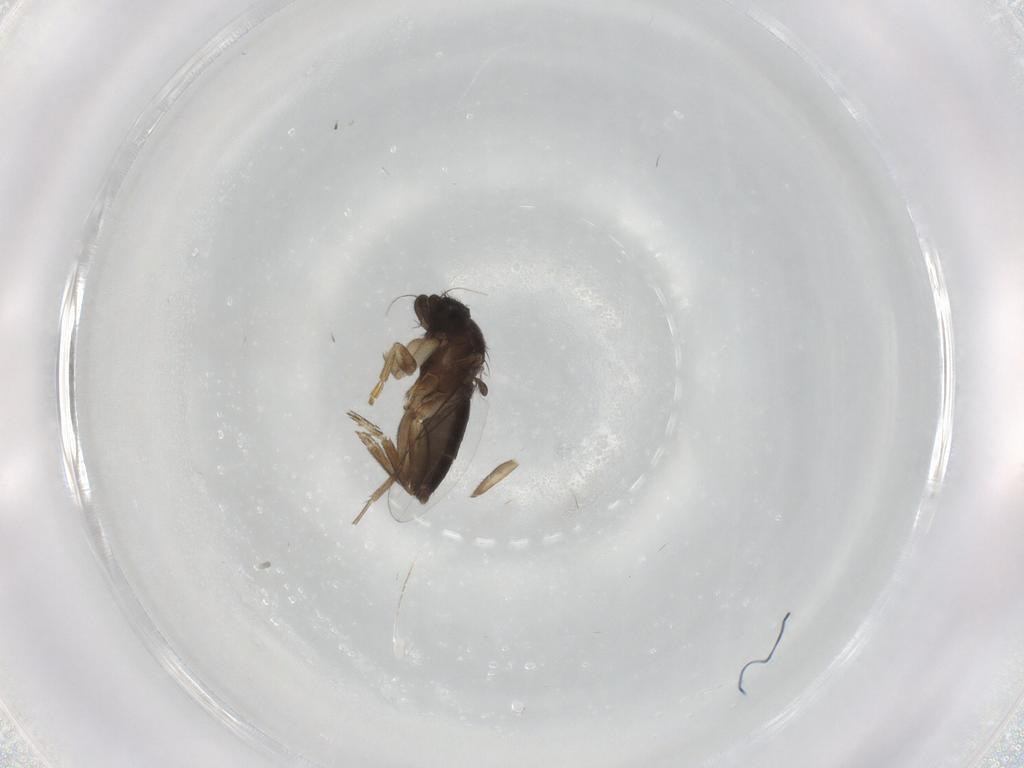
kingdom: Animalia
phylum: Arthropoda
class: Insecta
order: Diptera
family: Phoridae
